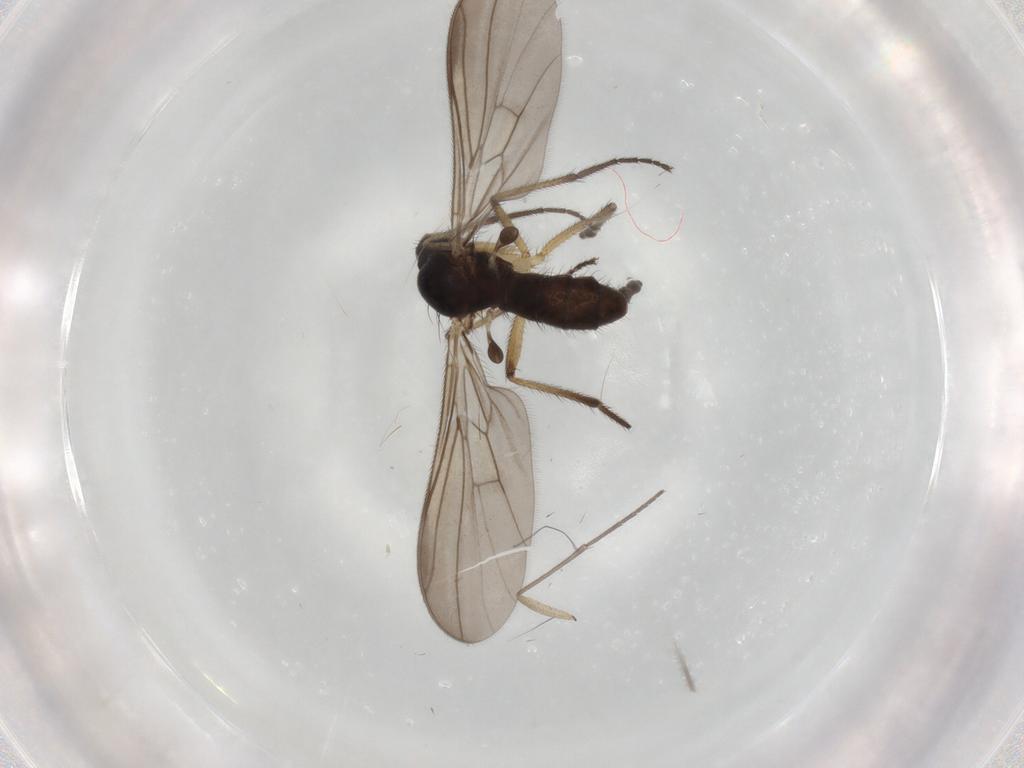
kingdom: Animalia
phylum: Arthropoda
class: Insecta
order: Diptera
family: Cecidomyiidae
